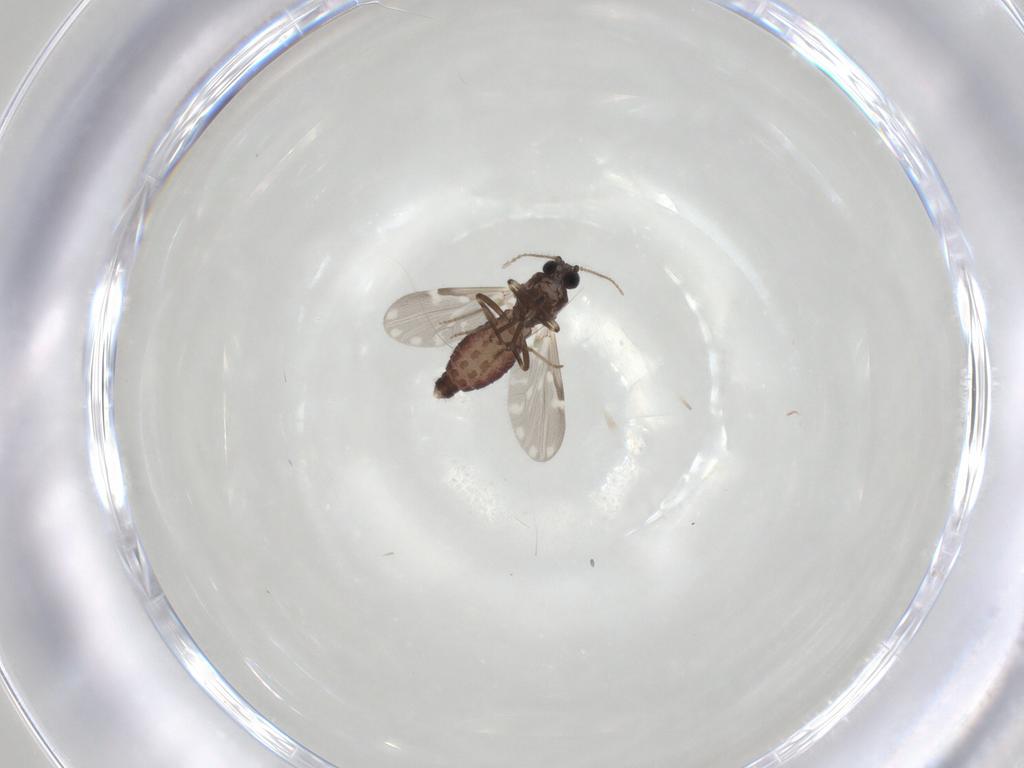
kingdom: Animalia
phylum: Arthropoda
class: Insecta
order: Diptera
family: Ceratopogonidae
